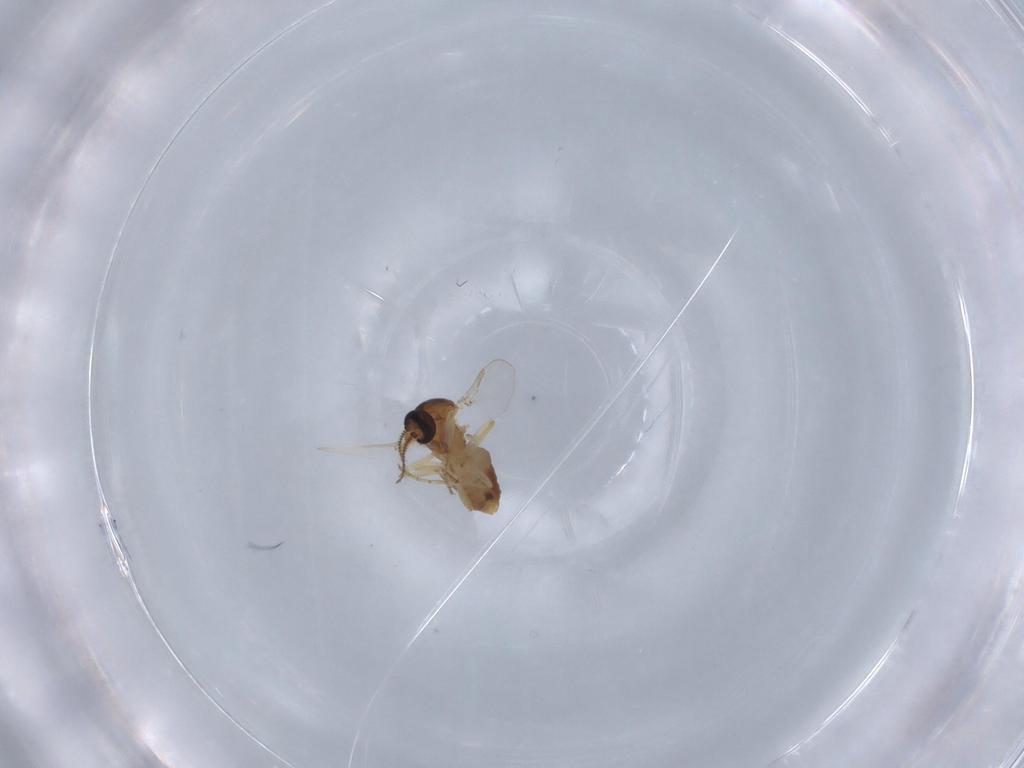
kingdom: Animalia
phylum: Arthropoda
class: Insecta
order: Diptera
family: Ceratopogonidae
